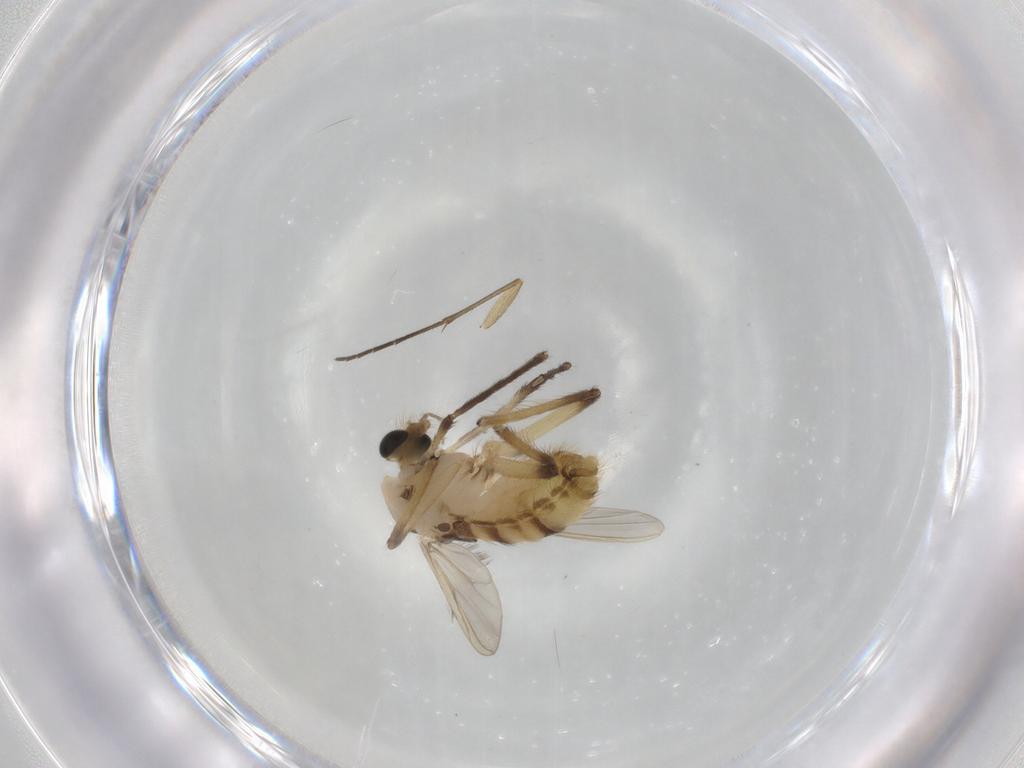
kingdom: Animalia
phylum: Arthropoda
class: Insecta
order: Diptera
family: Chironomidae
